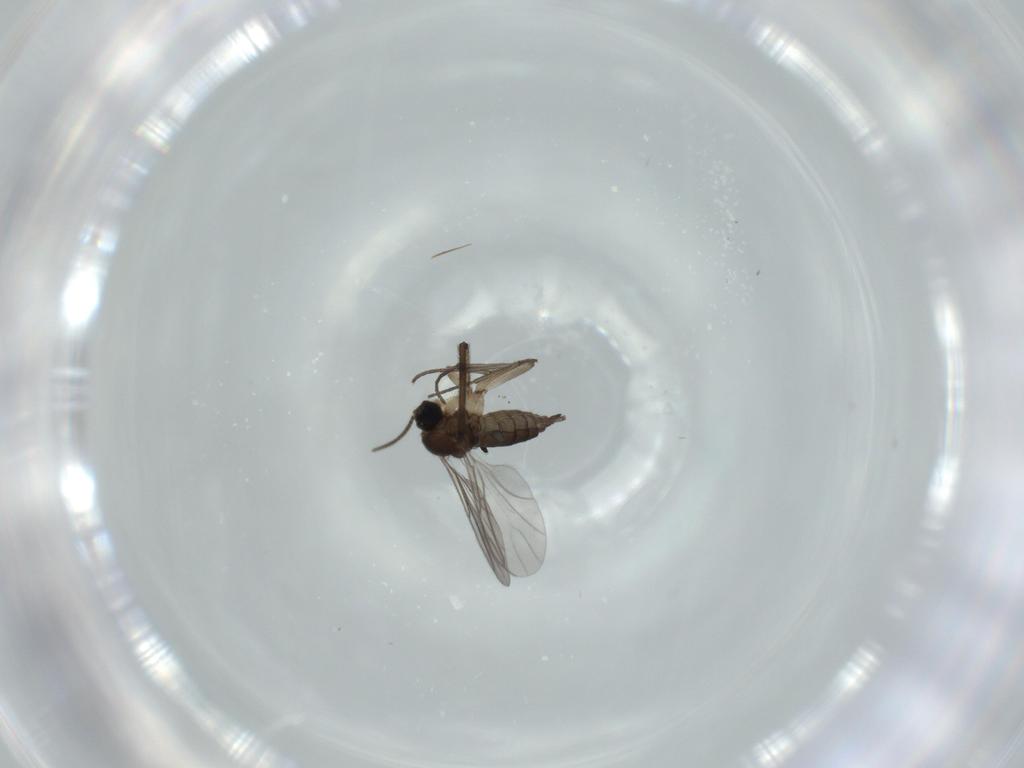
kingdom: Animalia
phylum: Arthropoda
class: Insecta
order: Diptera
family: Sciaridae
